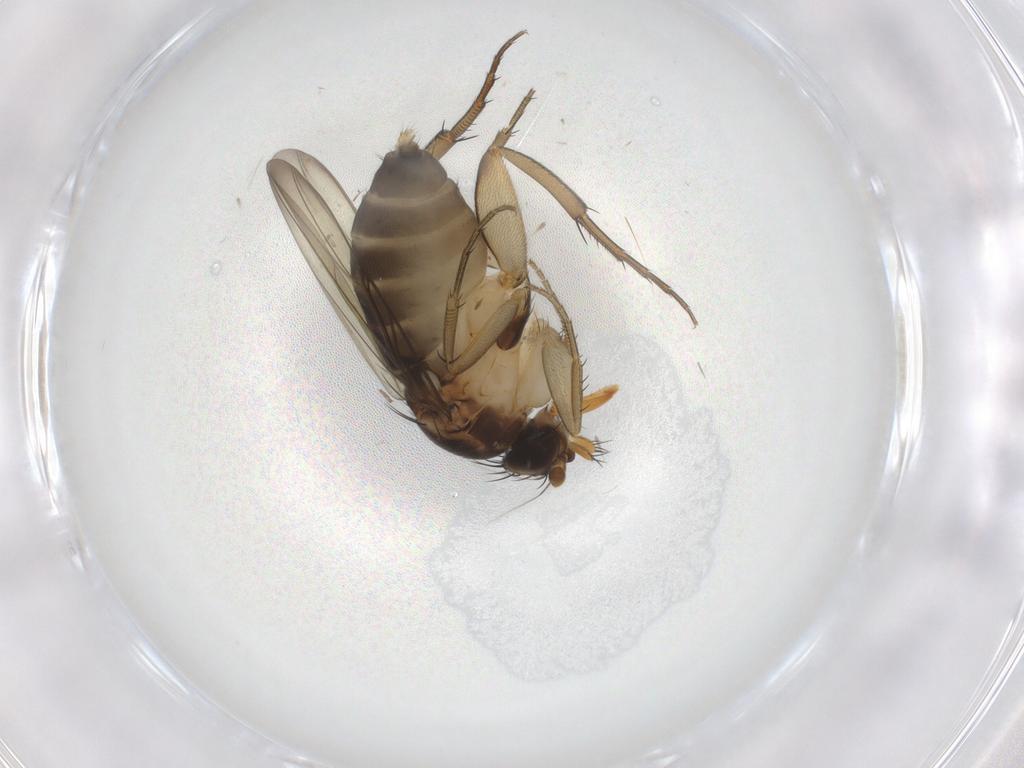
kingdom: Animalia
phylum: Arthropoda
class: Insecta
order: Diptera
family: Phoridae
